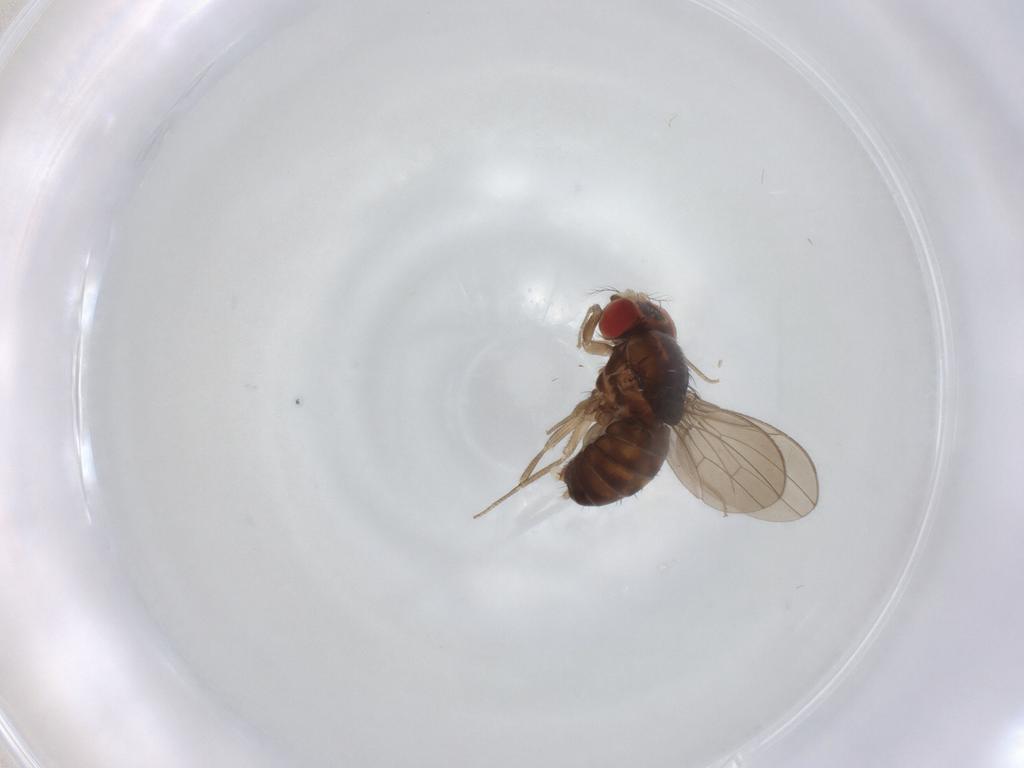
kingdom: Animalia
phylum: Arthropoda
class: Insecta
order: Diptera
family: Drosophilidae
